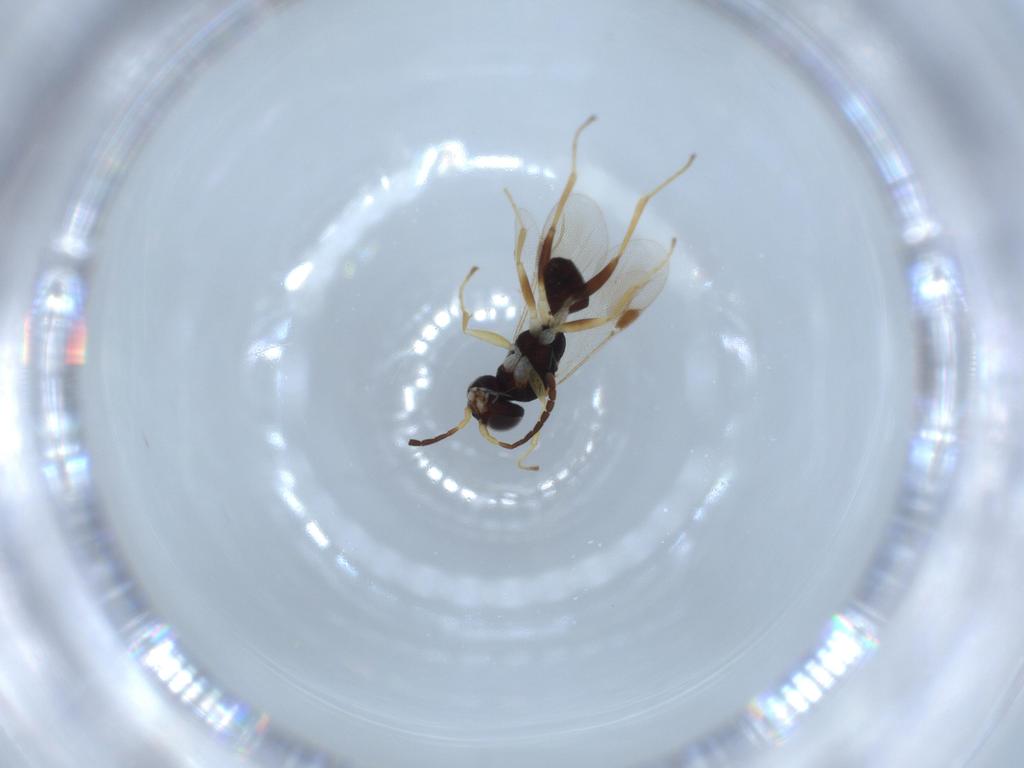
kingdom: Animalia
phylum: Arthropoda
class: Insecta
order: Hymenoptera
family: Dryinidae
